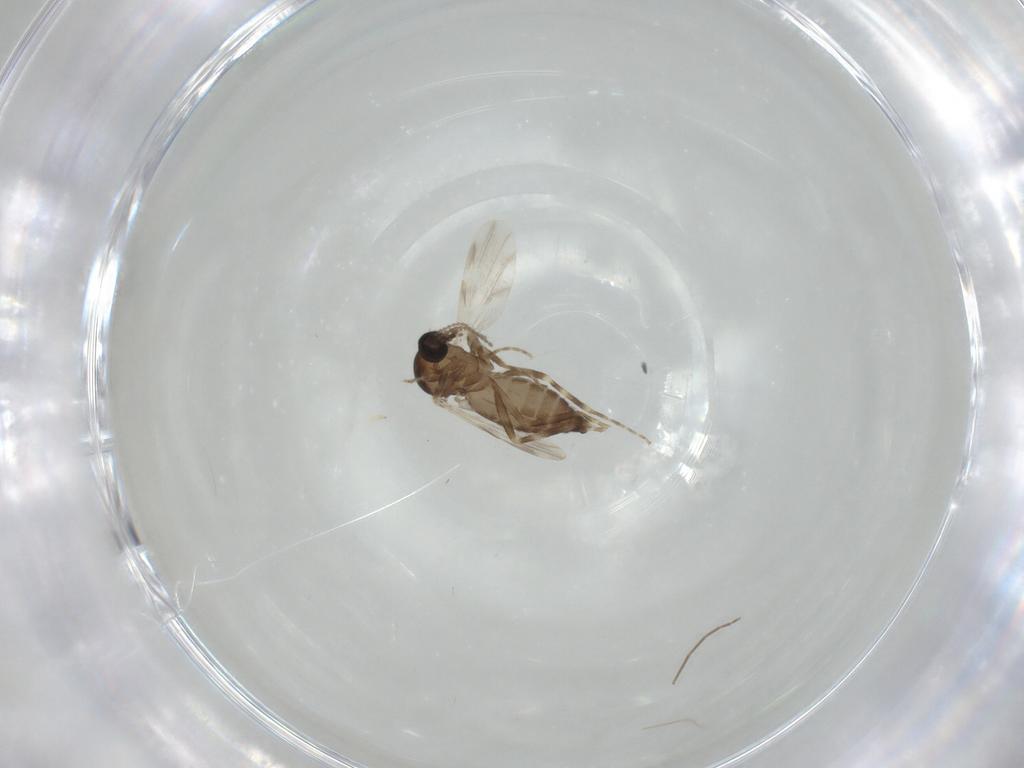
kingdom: Animalia
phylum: Arthropoda
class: Insecta
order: Diptera
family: Ceratopogonidae
